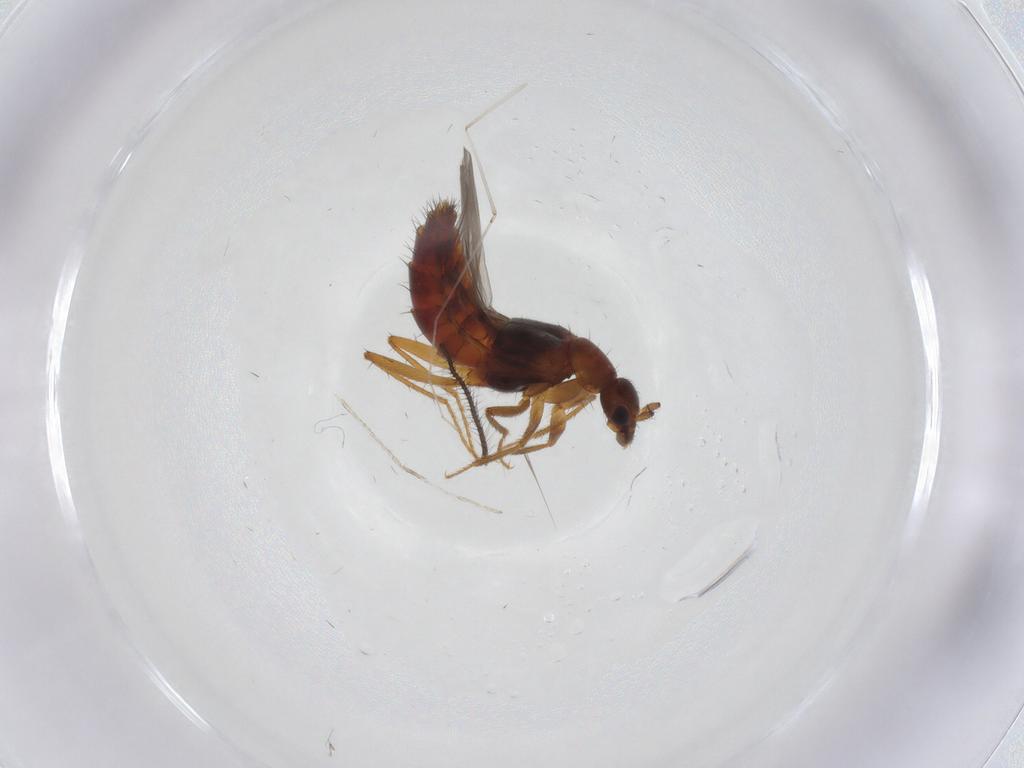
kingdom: Animalia
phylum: Arthropoda
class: Insecta
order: Coleoptera
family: Staphylinidae
